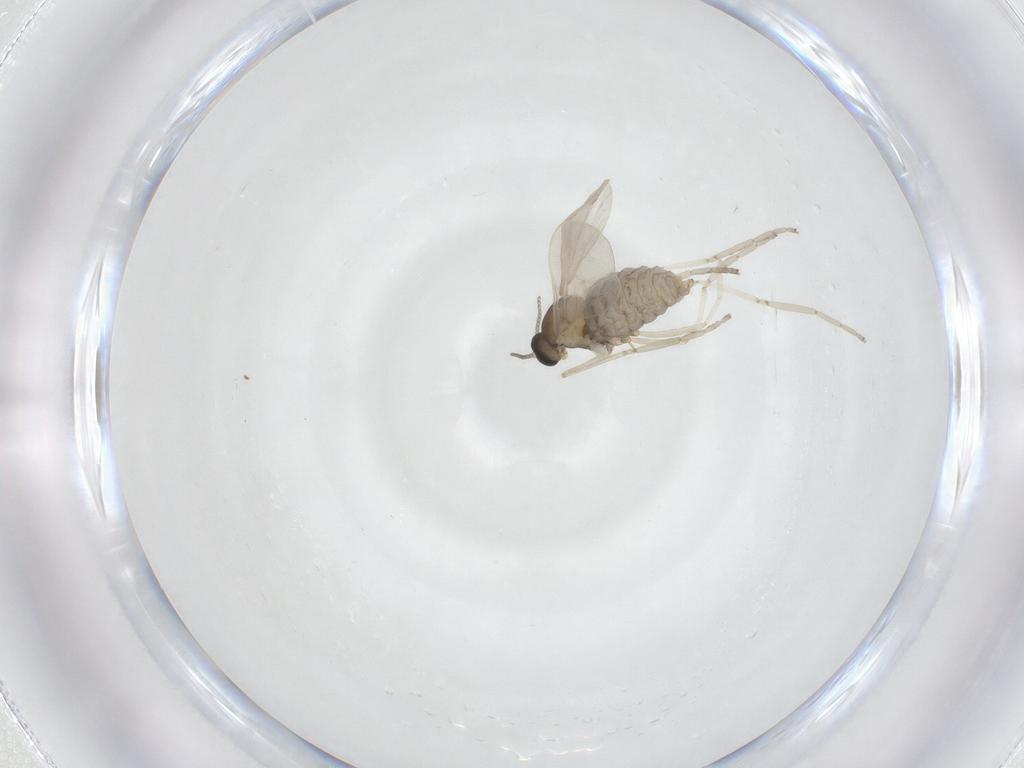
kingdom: Animalia
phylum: Arthropoda
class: Insecta
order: Diptera
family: Cecidomyiidae
